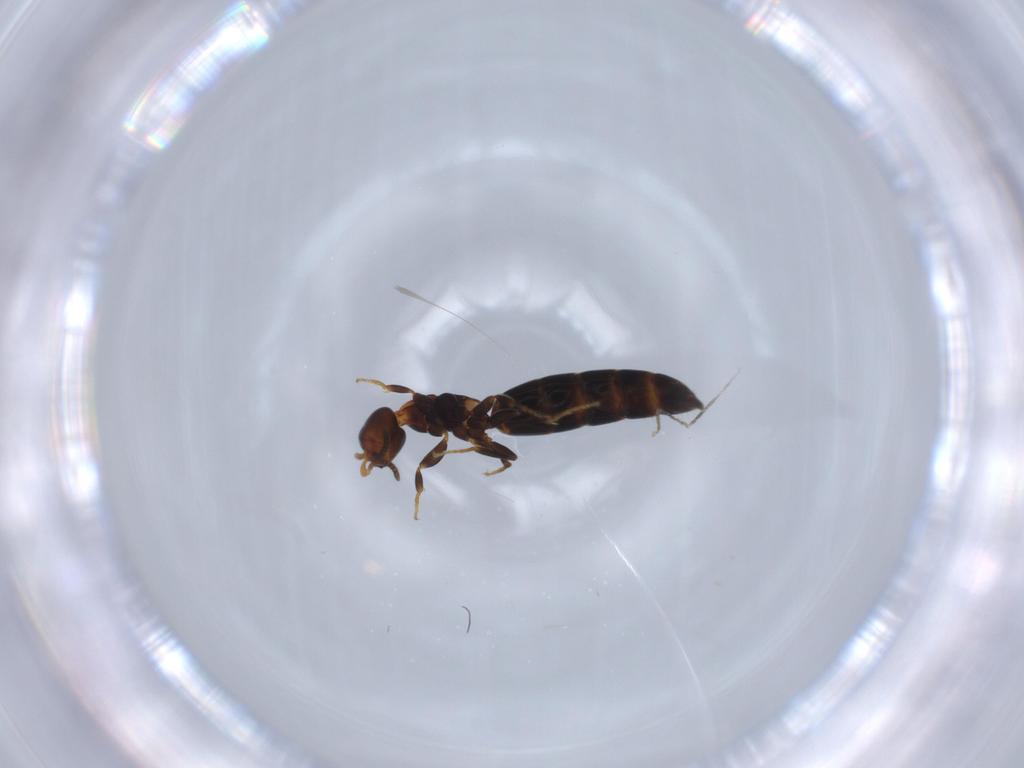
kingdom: Animalia
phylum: Arthropoda
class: Insecta
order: Hymenoptera
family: Bethylidae
